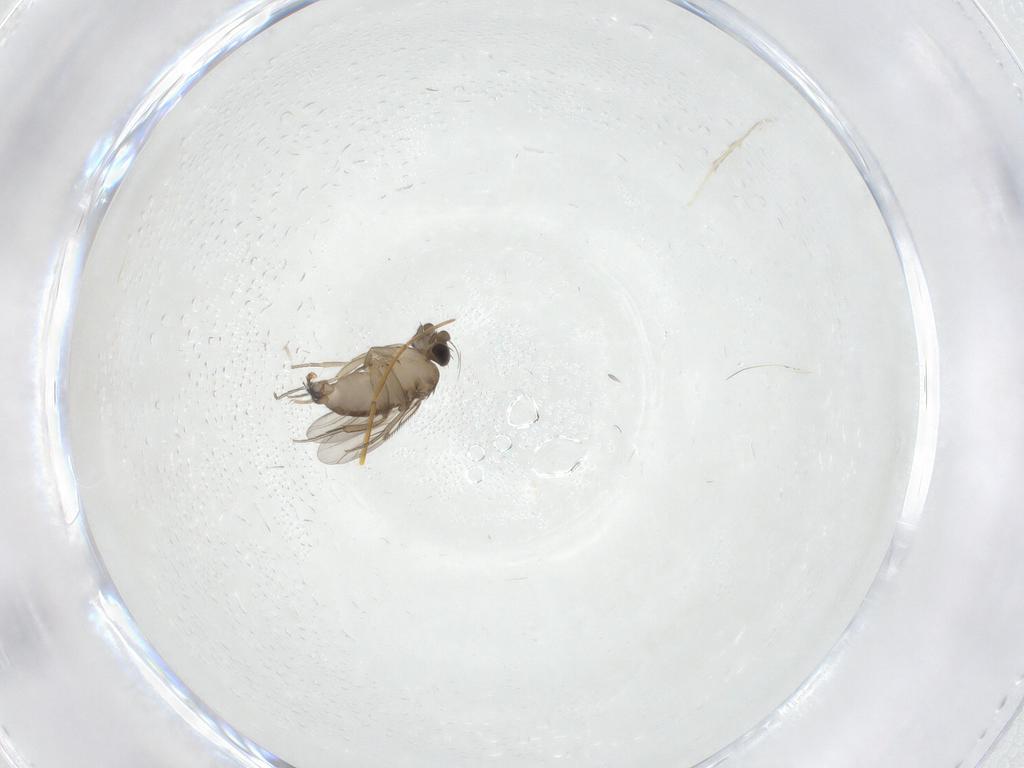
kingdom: Animalia
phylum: Arthropoda
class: Insecta
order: Diptera
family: Phoridae
